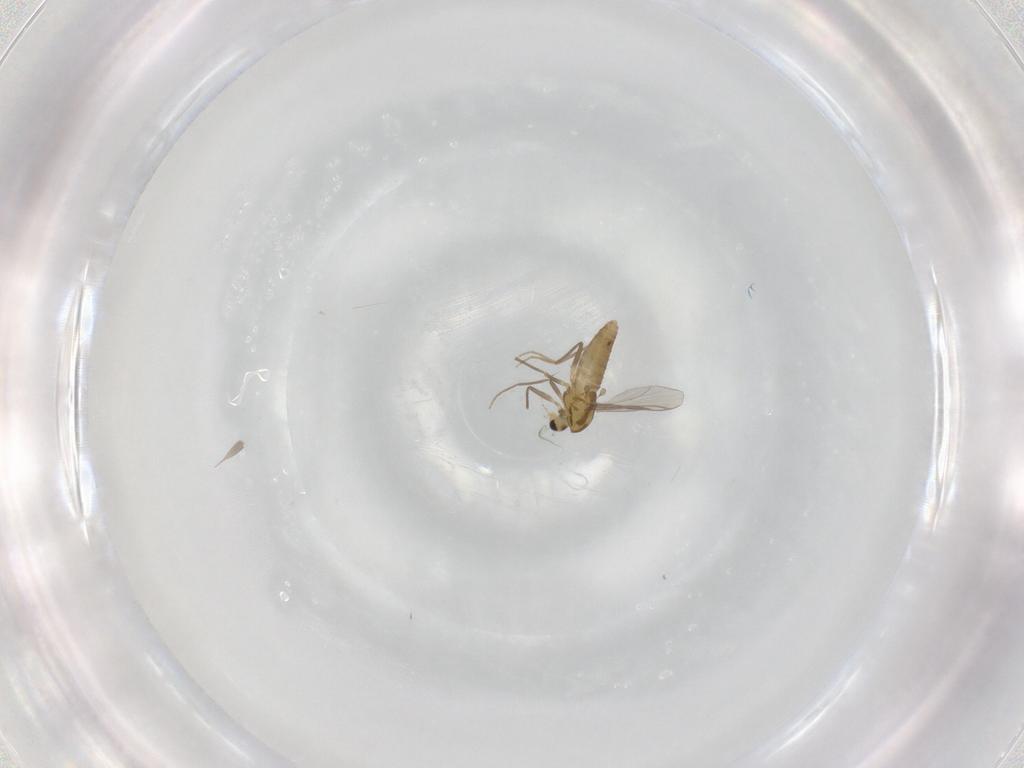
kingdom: Animalia
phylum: Arthropoda
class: Insecta
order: Diptera
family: Chironomidae
